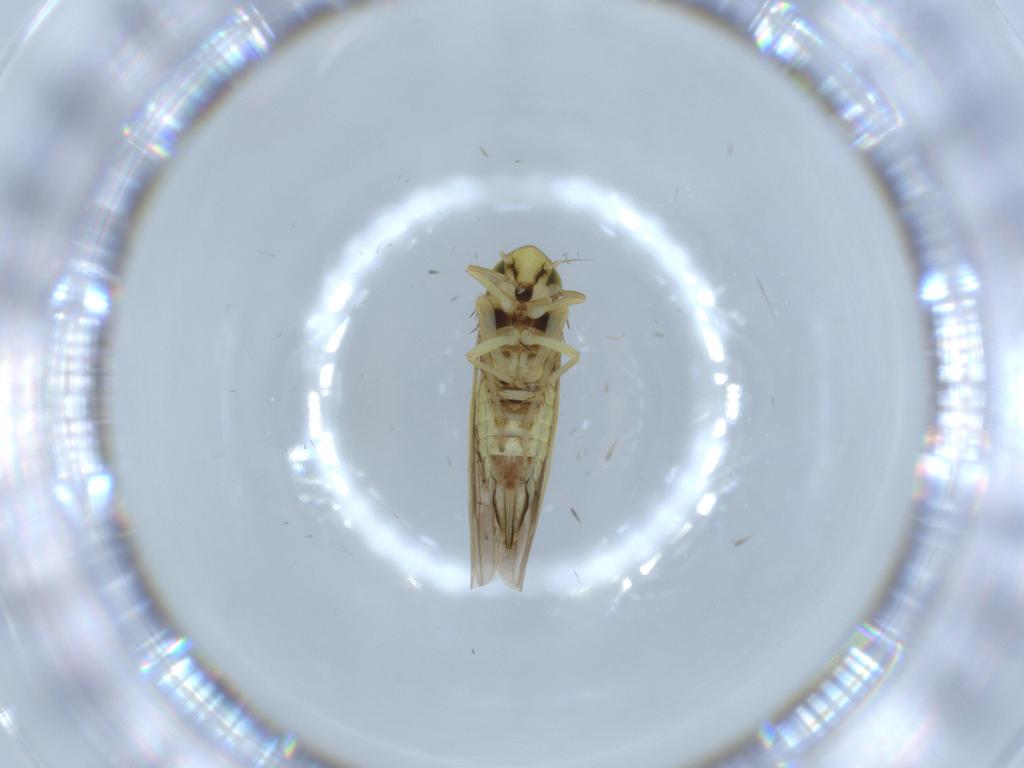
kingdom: Animalia
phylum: Arthropoda
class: Insecta
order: Hemiptera
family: Cicadellidae
